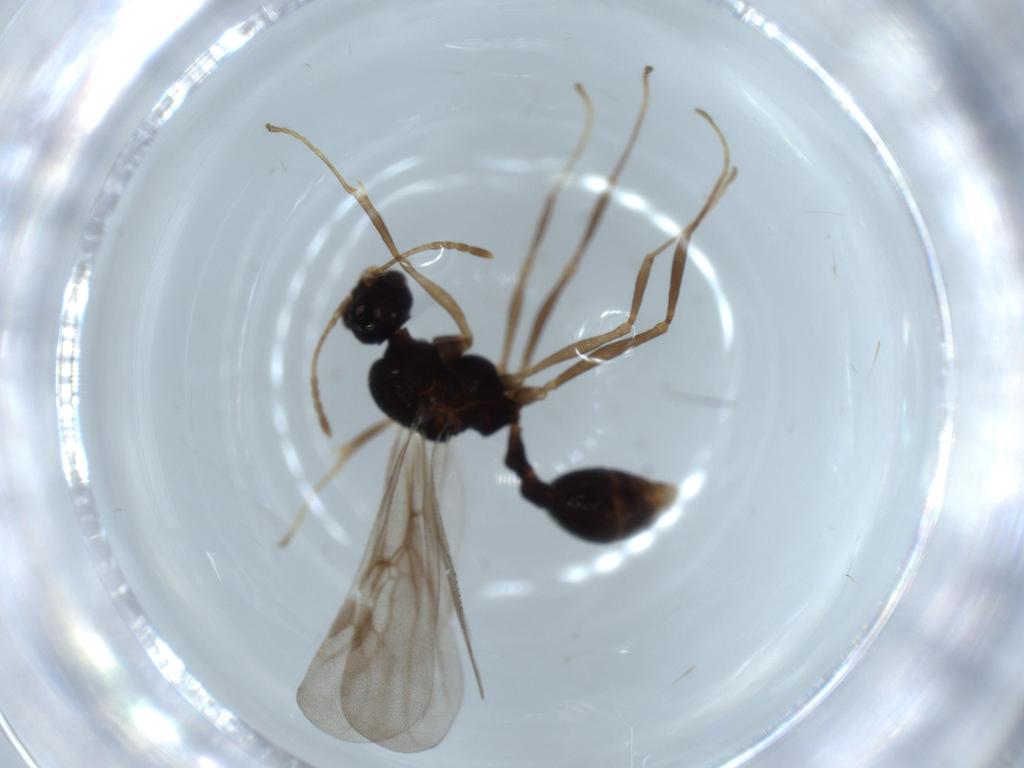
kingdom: Animalia
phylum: Arthropoda
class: Insecta
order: Hymenoptera
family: Formicidae
